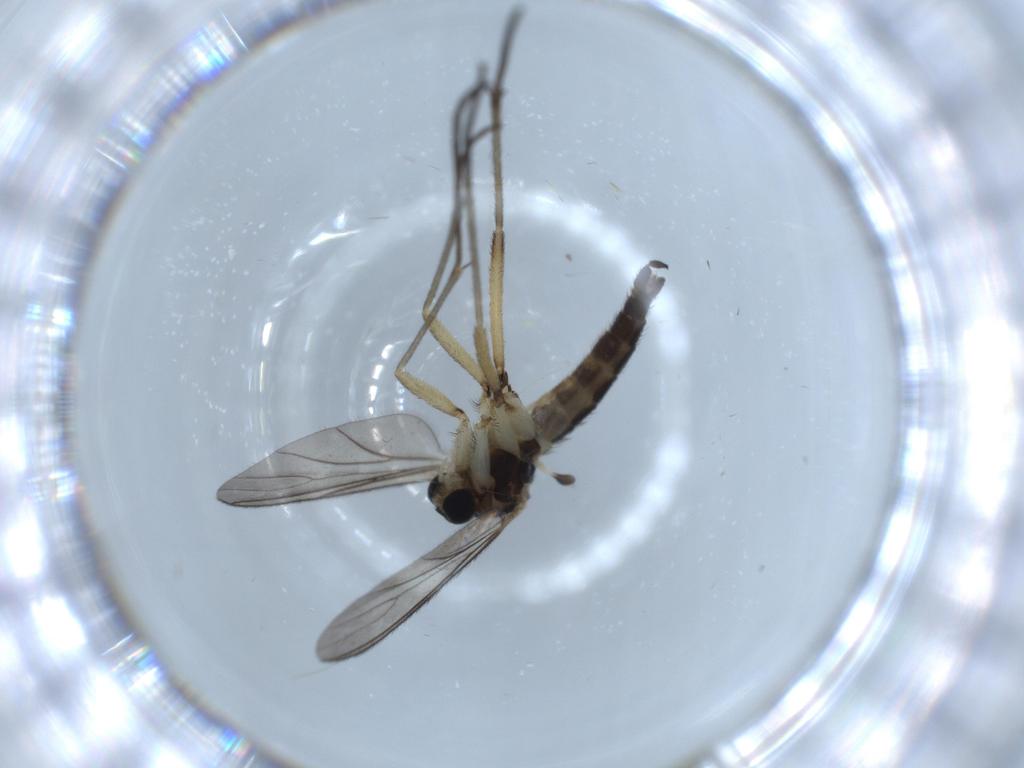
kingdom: Animalia
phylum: Arthropoda
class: Insecta
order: Diptera
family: Sciaridae
